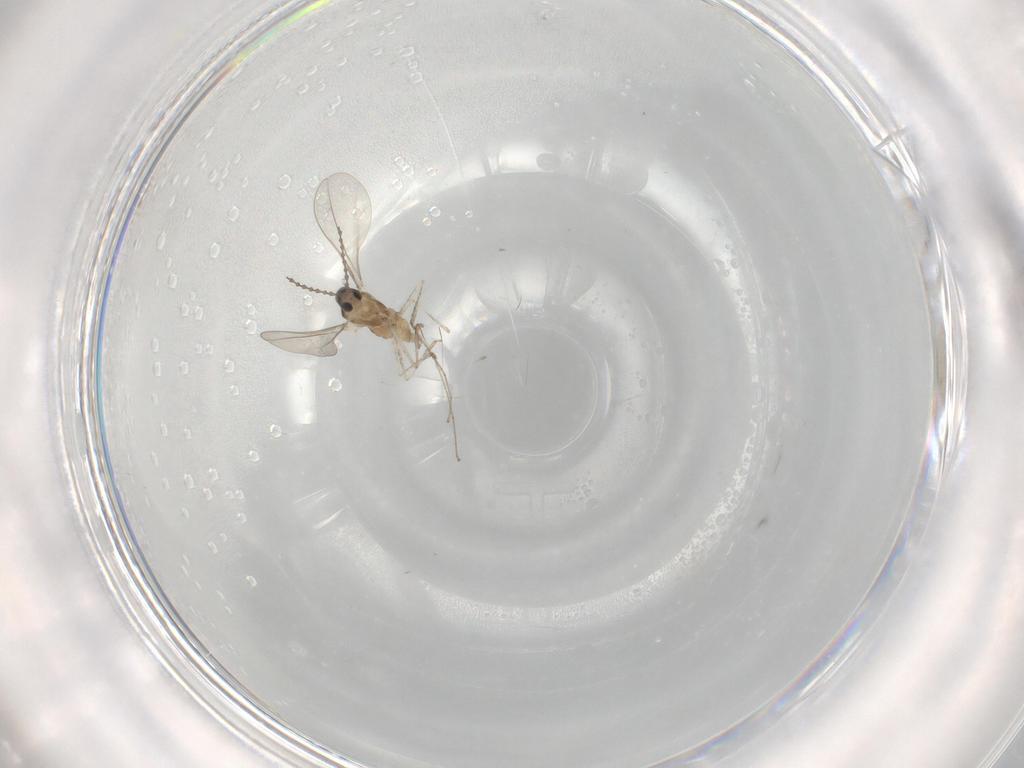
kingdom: Animalia
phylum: Arthropoda
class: Insecta
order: Diptera
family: Cecidomyiidae
